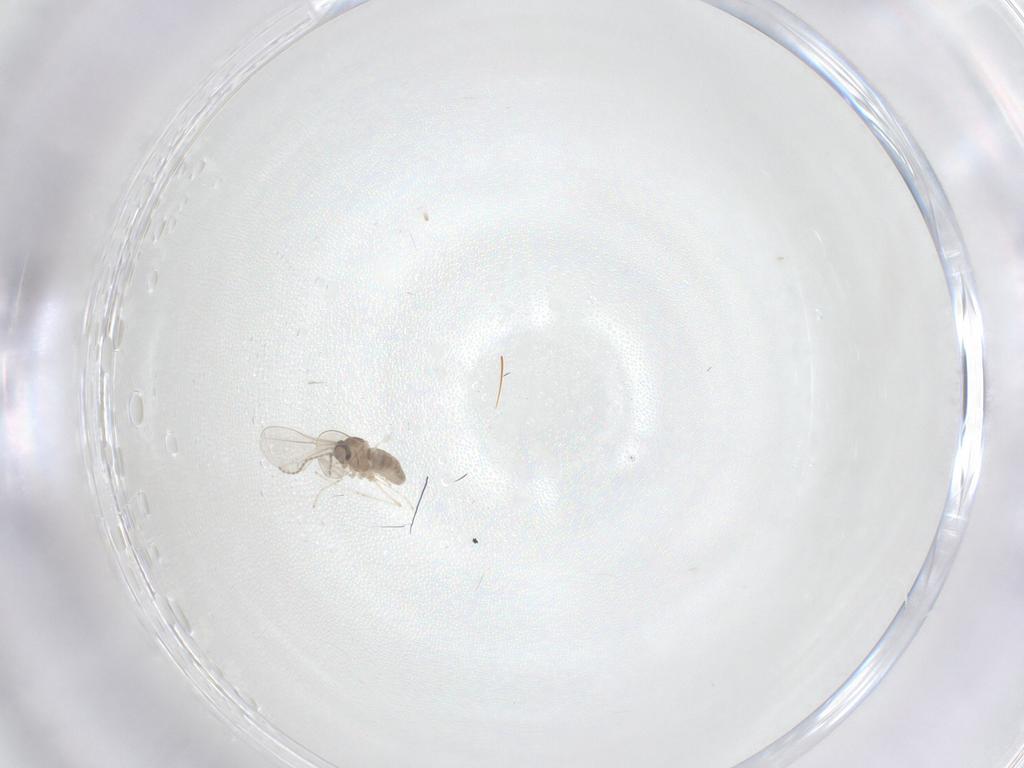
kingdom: Animalia
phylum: Arthropoda
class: Insecta
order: Diptera
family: Cecidomyiidae
